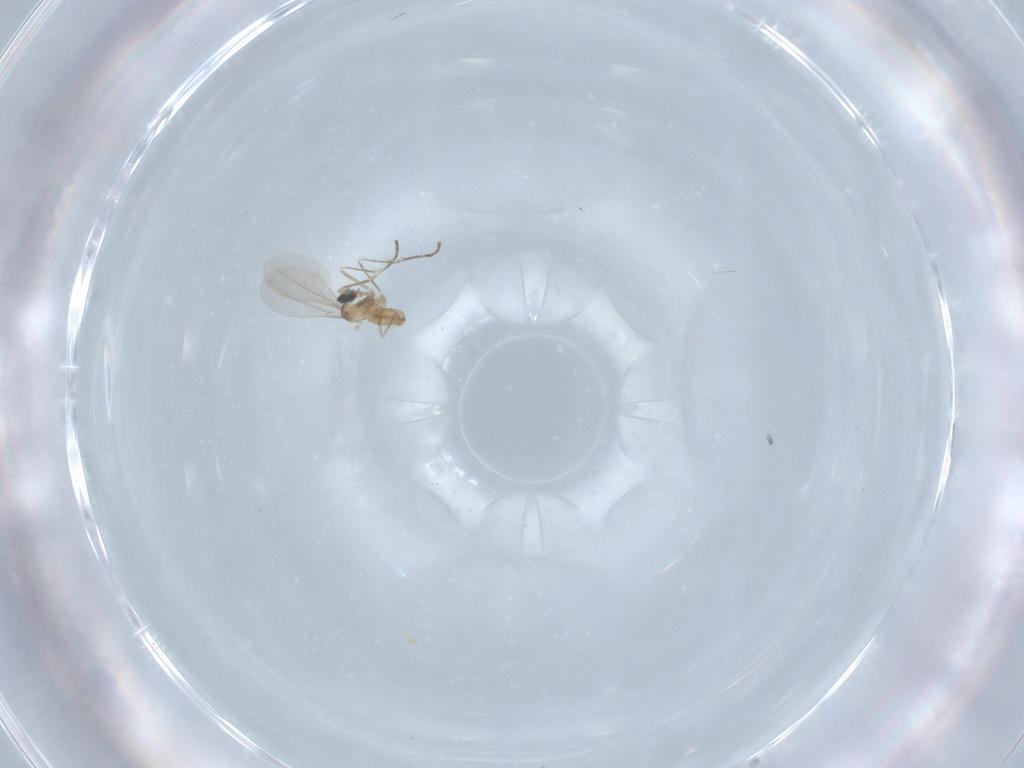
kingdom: Animalia
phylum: Arthropoda
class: Insecta
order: Diptera
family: Cecidomyiidae
